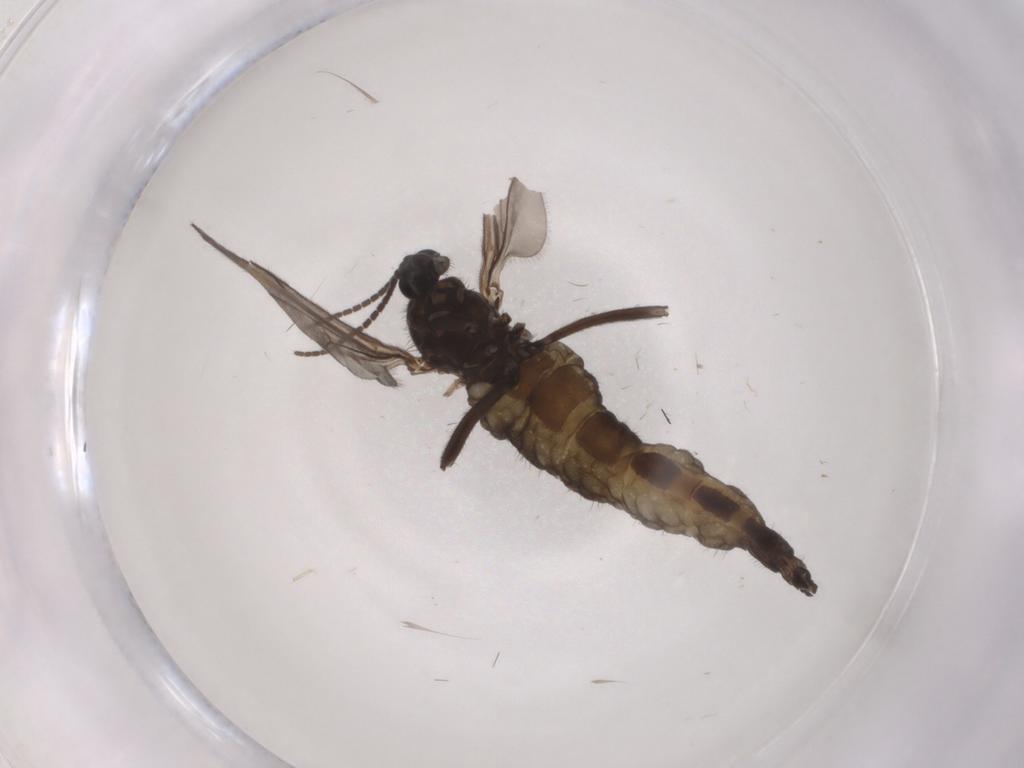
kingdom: Animalia
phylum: Arthropoda
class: Insecta
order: Diptera
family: Sciaridae
